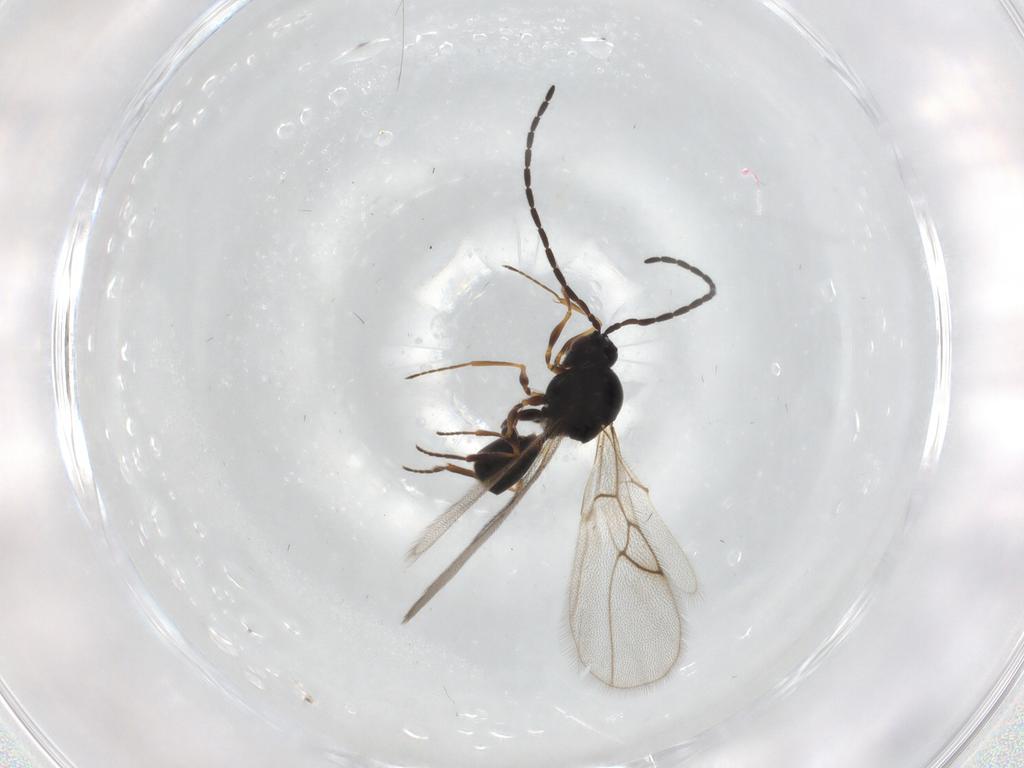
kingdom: Animalia
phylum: Arthropoda
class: Insecta
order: Hymenoptera
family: Figitidae
